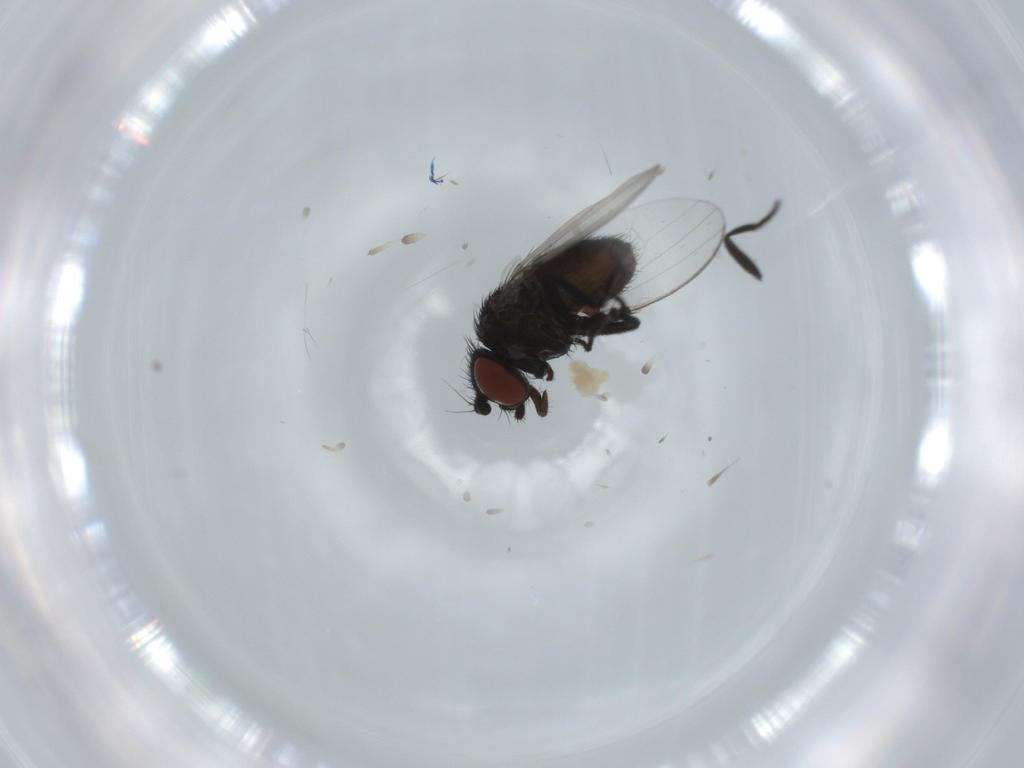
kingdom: Animalia
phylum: Arthropoda
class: Insecta
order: Diptera
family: Milichiidae
